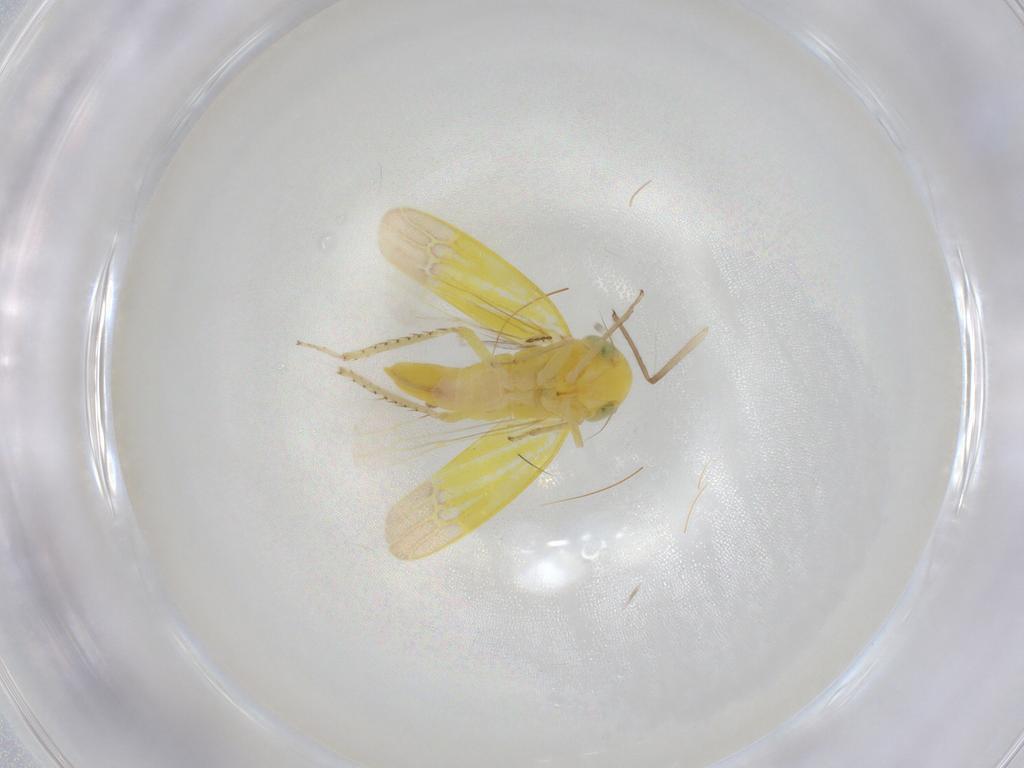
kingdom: Animalia
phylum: Arthropoda
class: Insecta
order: Hemiptera
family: Cicadellidae
